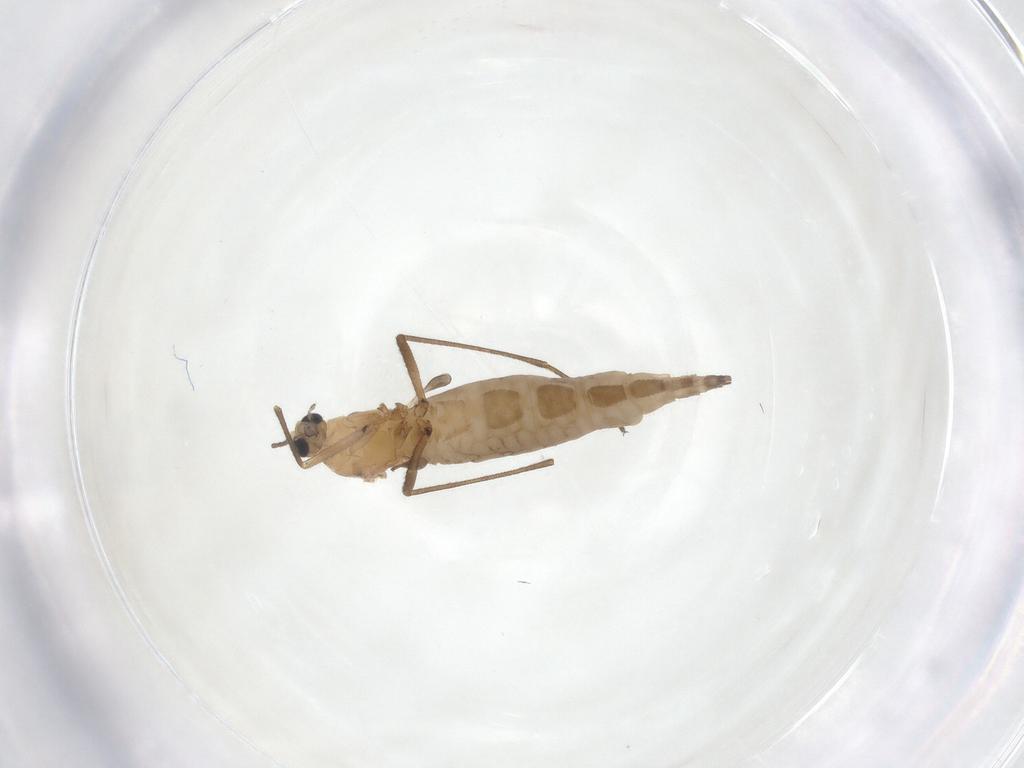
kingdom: Animalia
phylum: Arthropoda
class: Insecta
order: Diptera
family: Sciaridae
